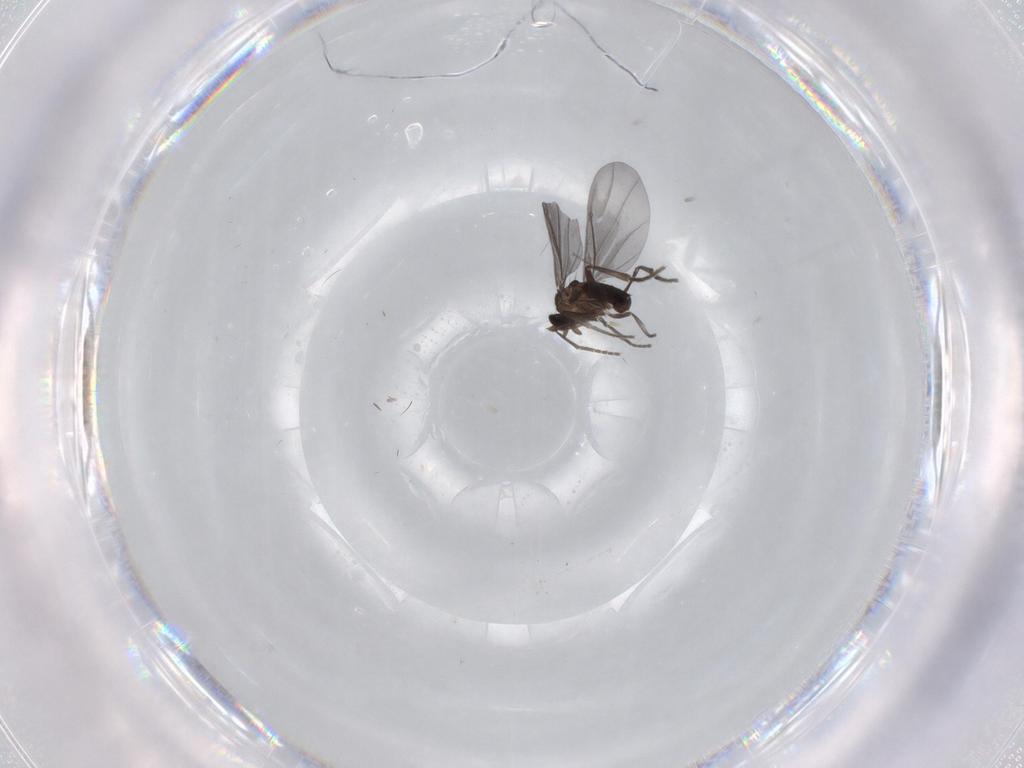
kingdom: Animalia
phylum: Arthropoda
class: Insecta
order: Diptera
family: Phoridae
